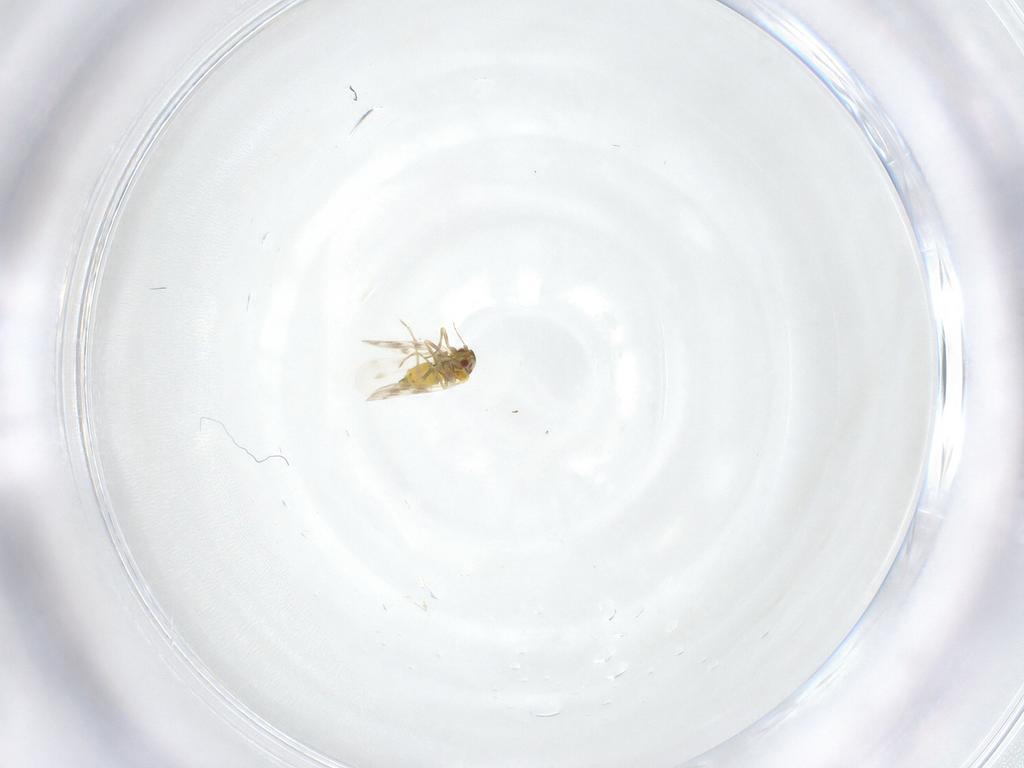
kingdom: Animalia
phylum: Arthropoda
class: Insecta
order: Hemiptera
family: Aleyrodidae
